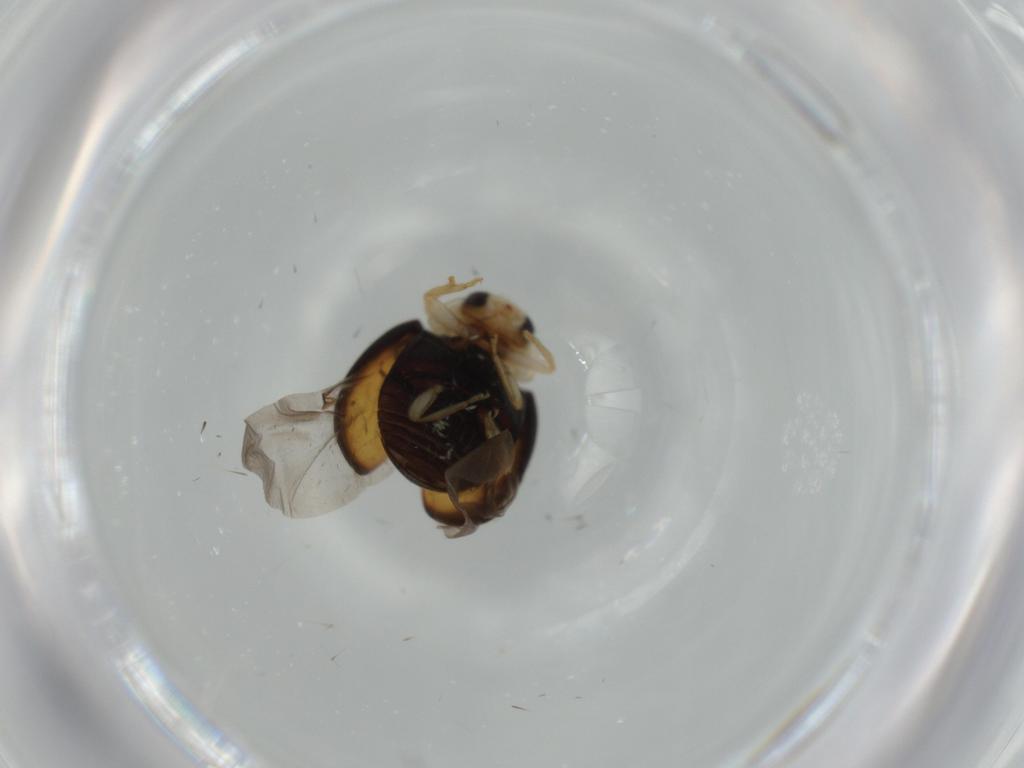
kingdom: Animalia
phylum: Arthropoda
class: Insecta
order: Coleoptera
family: Coccinellidae
